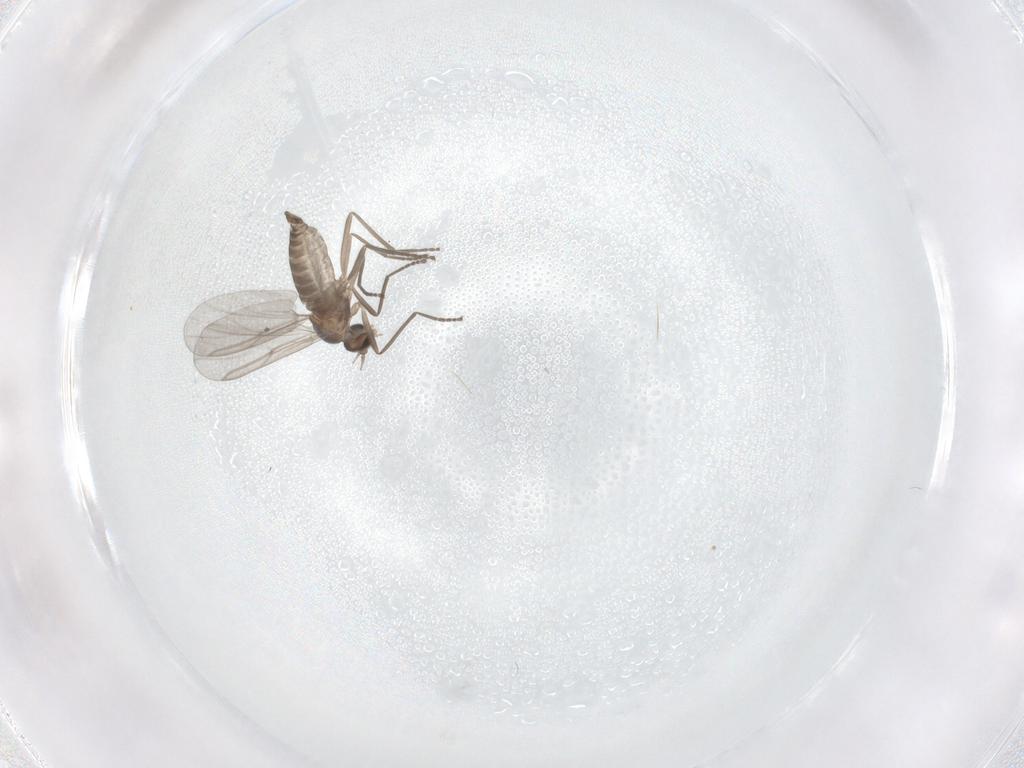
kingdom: Animalia
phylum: Arthropoda
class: Insecta
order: Diptera
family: Cecidomyiidae
